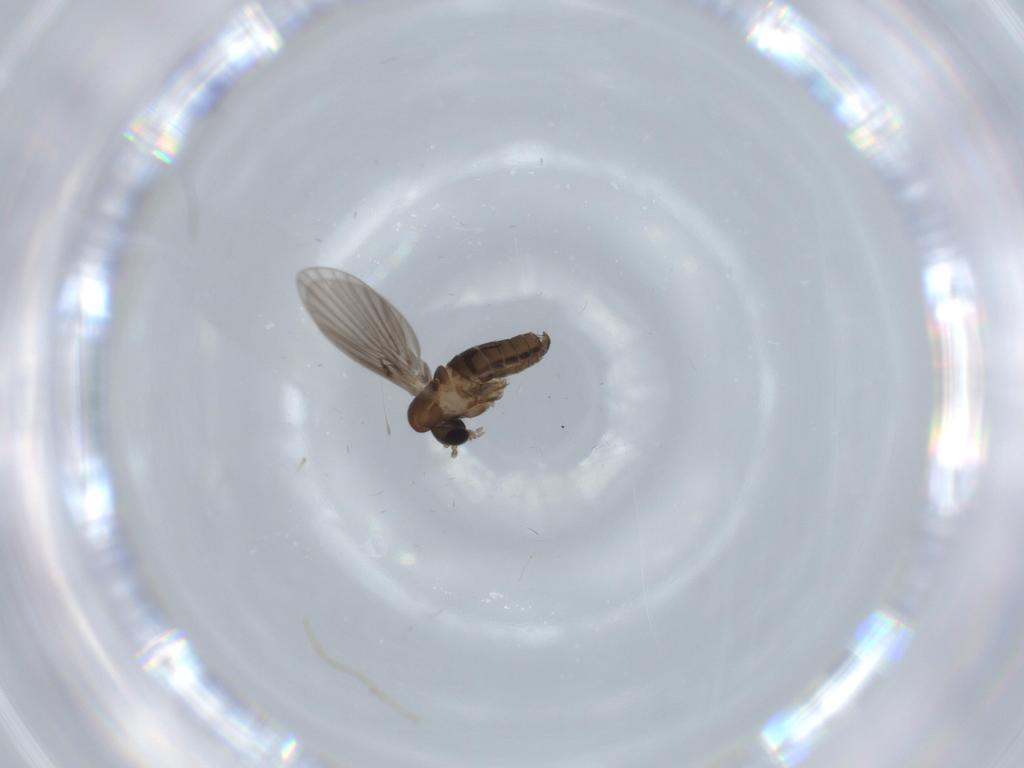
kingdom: Animalia
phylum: Arthropoda
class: Insecta
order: Diptera
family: Psychodidae
